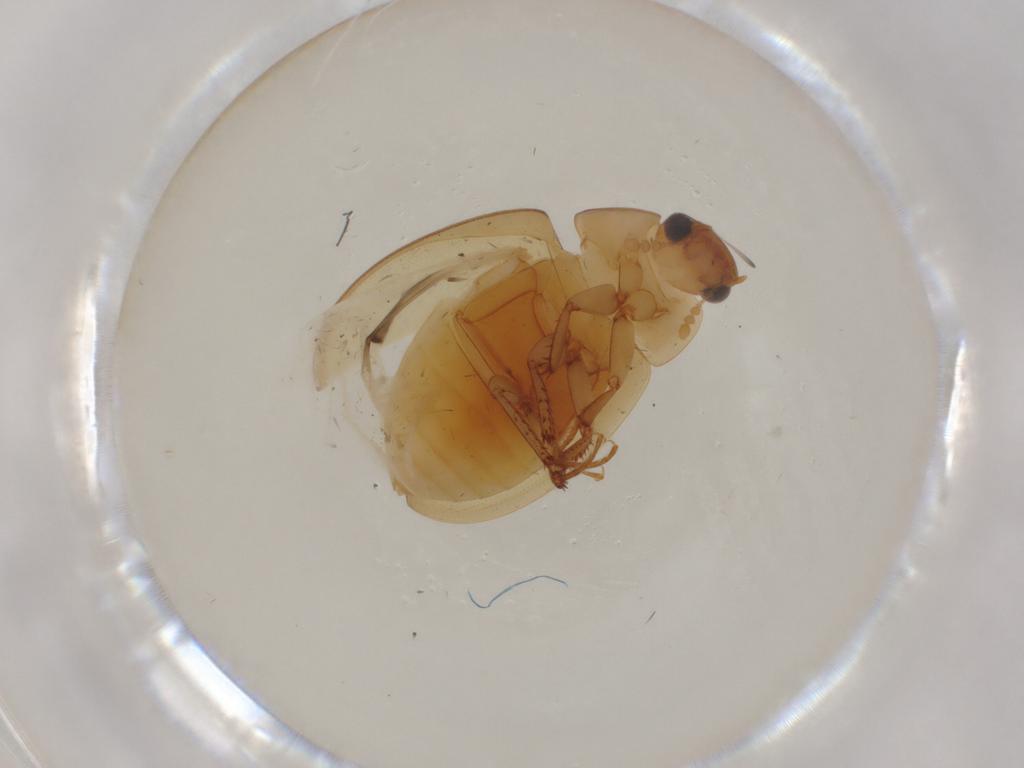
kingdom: Animalia
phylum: Arthropoda
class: Insecta
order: Coleoptera
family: Hydrophilidae
